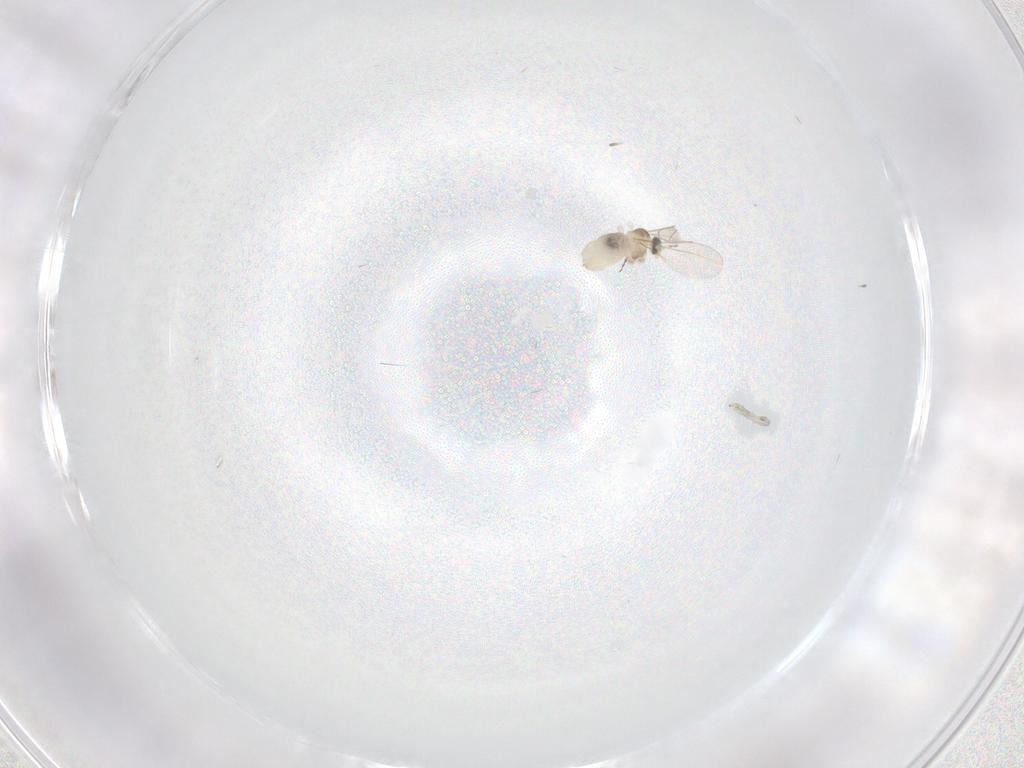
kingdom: Animalia
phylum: Arthropoda
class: Insecta
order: Diptera
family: Cecidomyiidae
